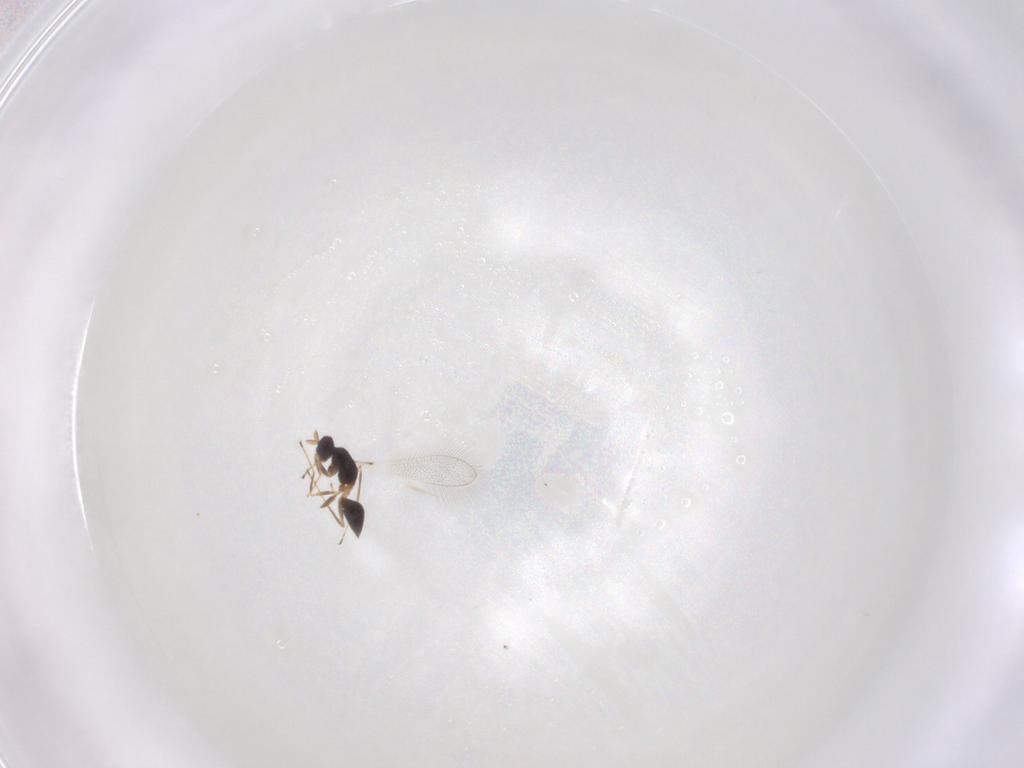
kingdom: Animalia
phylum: Arthropoda
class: Insecta
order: Hymenoptera
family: Mymaridae
